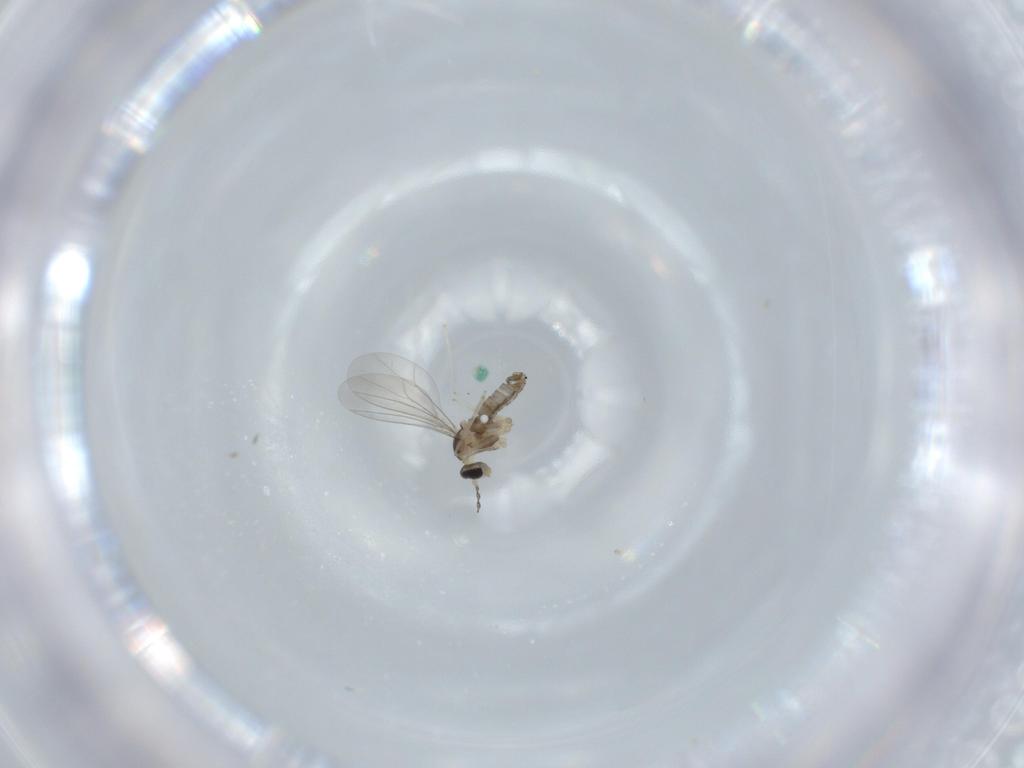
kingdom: Animalia
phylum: Arthropoda
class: Insecta
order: Diptera
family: Cecidomyiidae
